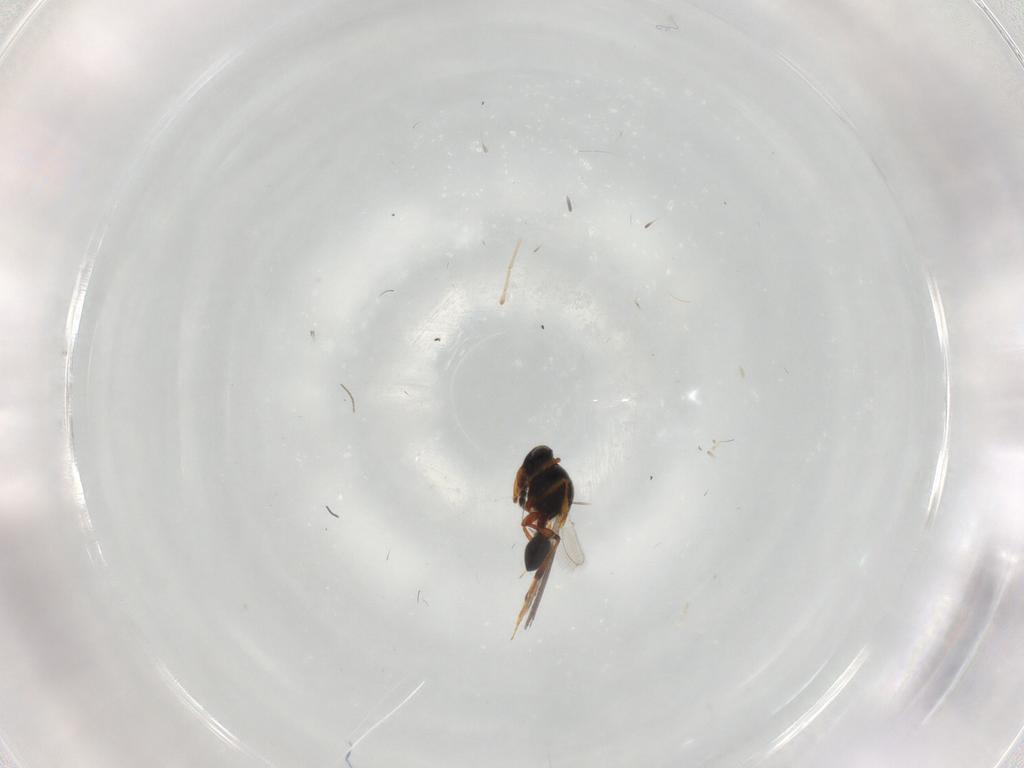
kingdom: Animalia
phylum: Arthropoda
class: Insecta
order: Hymenoptera
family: Bethylidae
